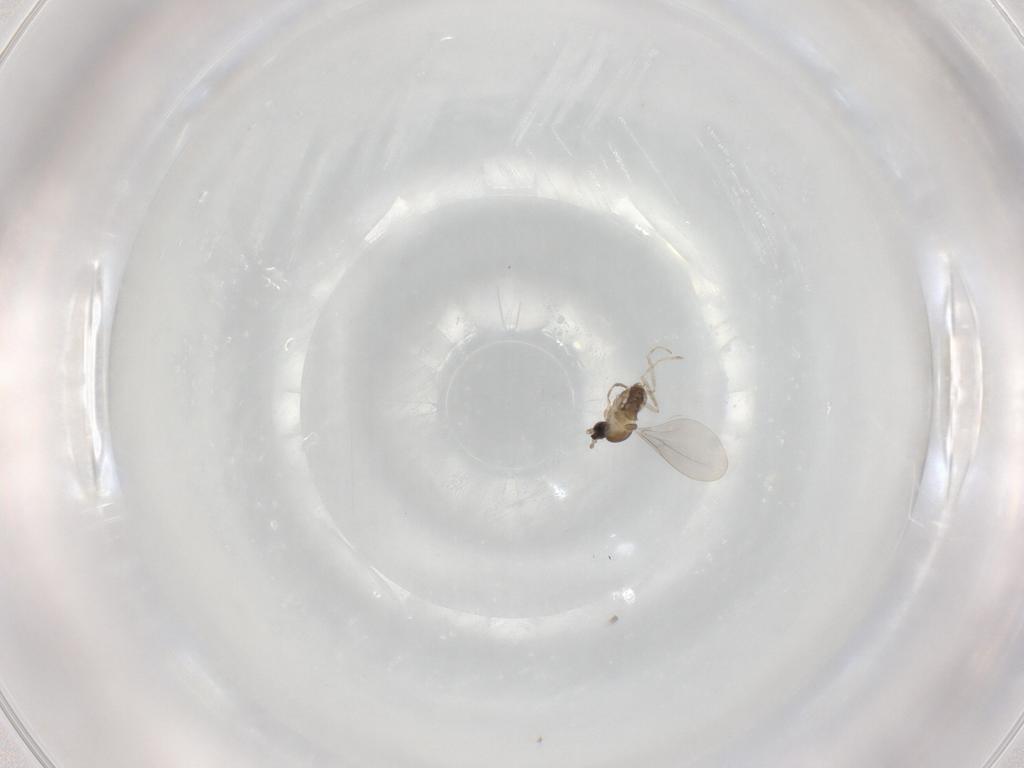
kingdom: Animalia
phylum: Arthropoda
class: Insecta
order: Diptera
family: Cecidomyiidae
